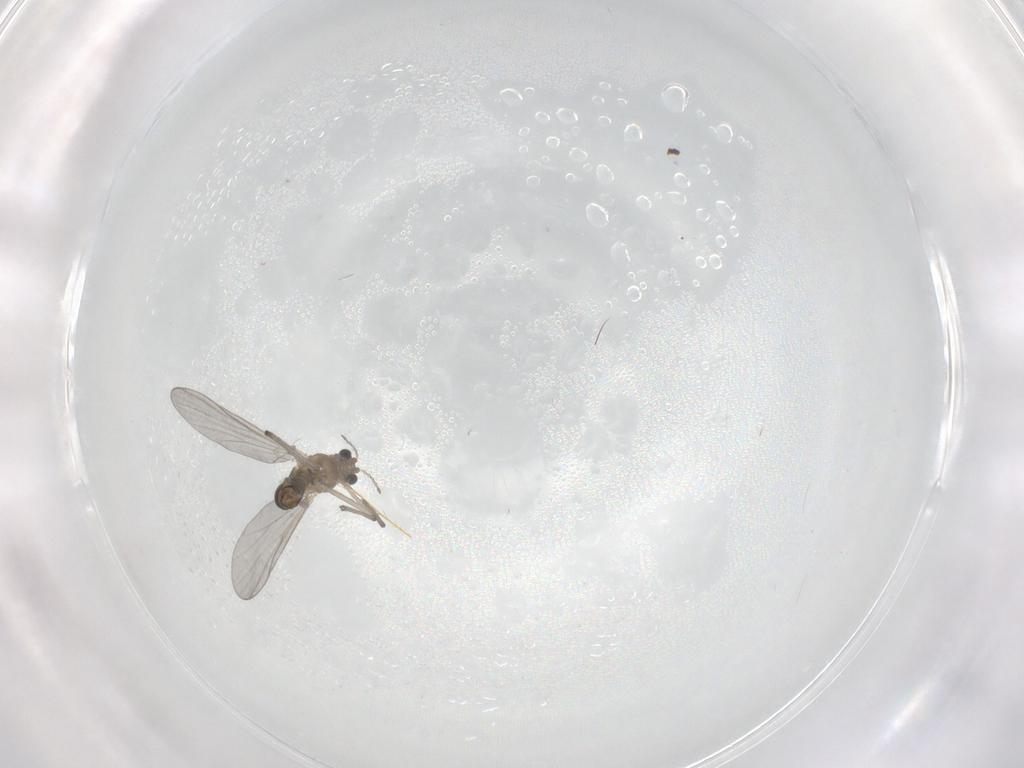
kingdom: Animalia
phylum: Arthropoda
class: Insecta
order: Diptera
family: Chironomidae
